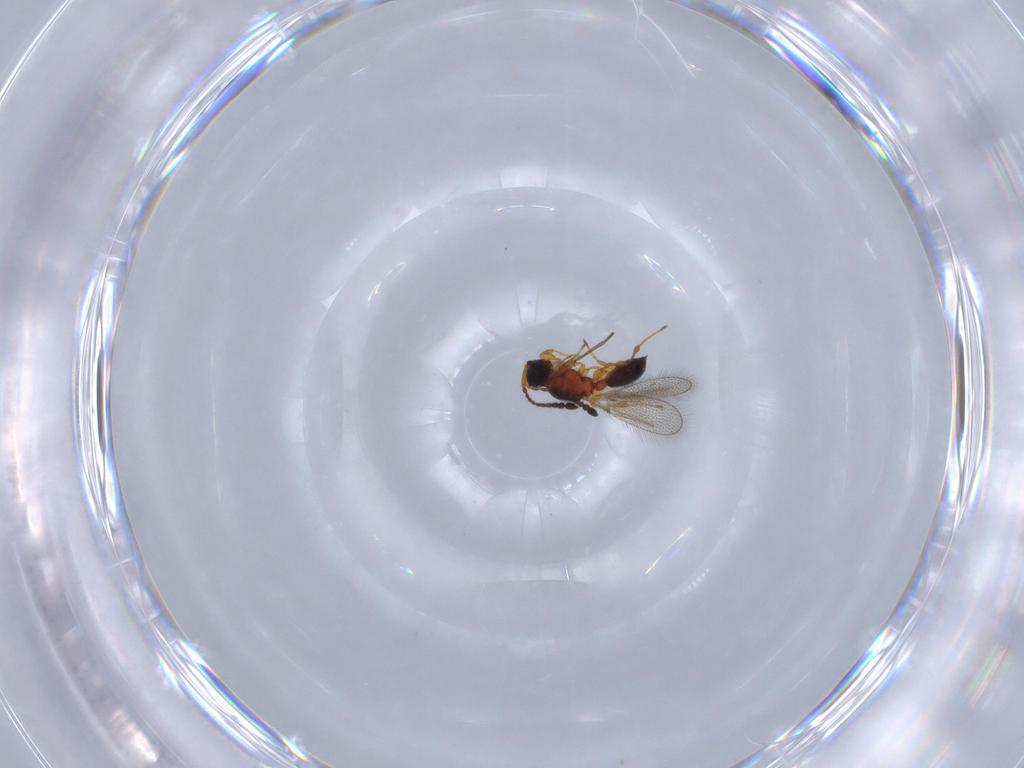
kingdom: Animalia
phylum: Arthropoda
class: Insecta
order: Hymenoptera
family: Diapriidae
